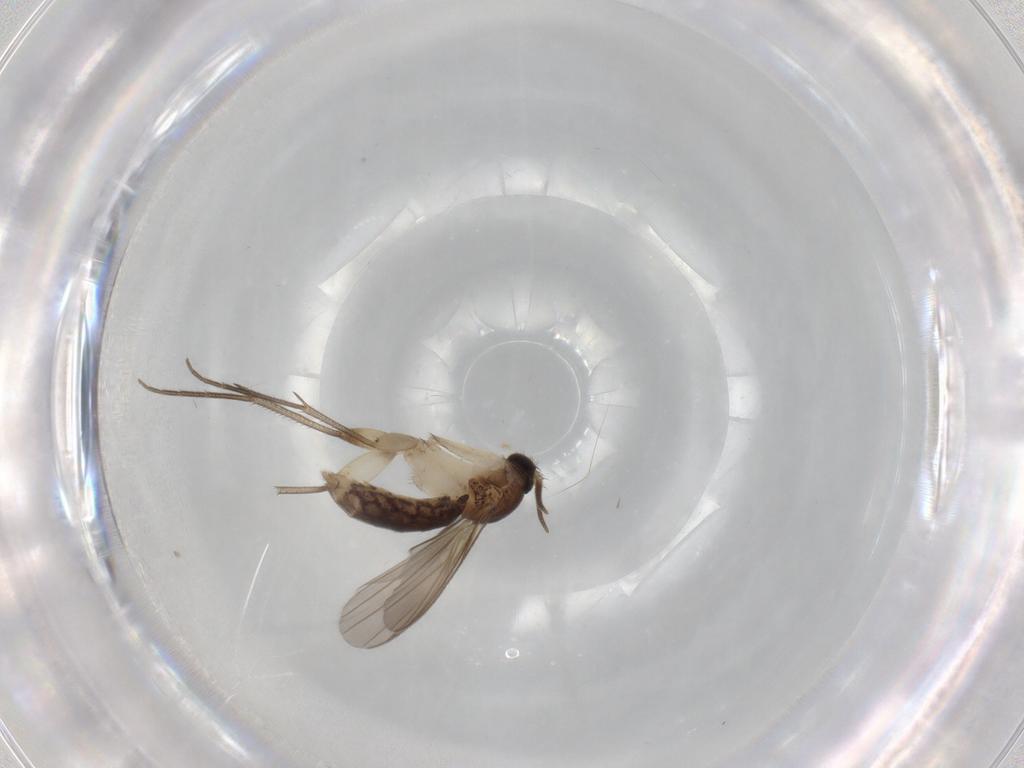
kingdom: Animalia
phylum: Arthropoda
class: Insecta
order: Diptera
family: Mycetophilidae
